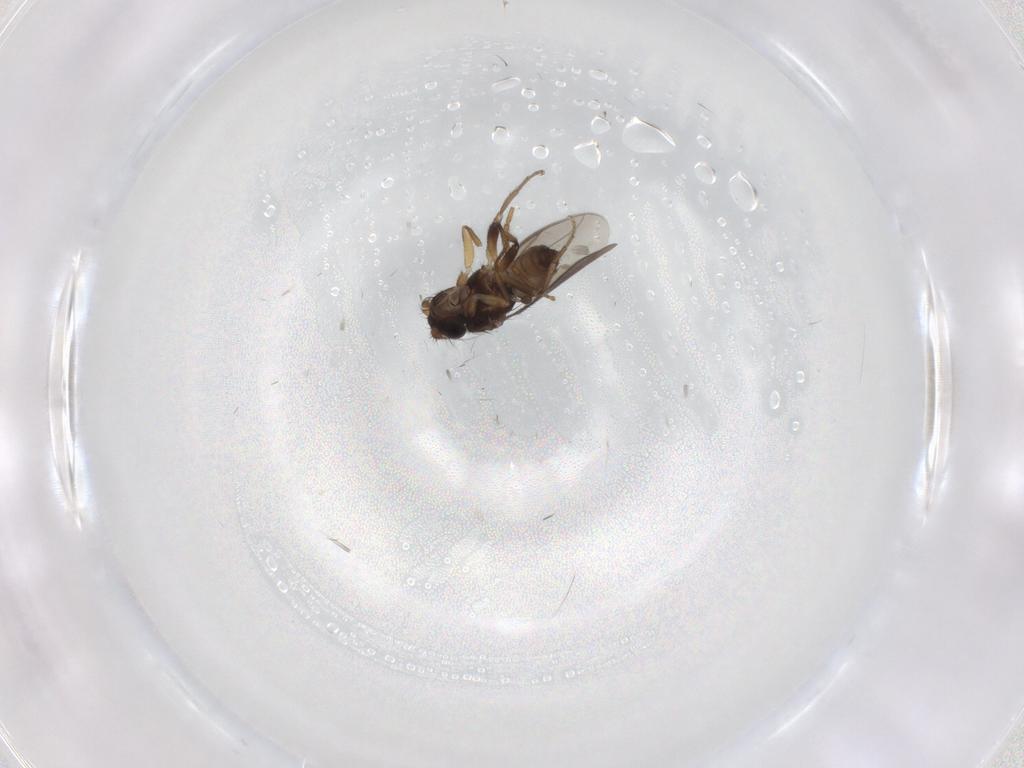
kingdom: Animalia
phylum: Arthropoda
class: Insecta
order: Diptera
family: Sphaeroceridae
